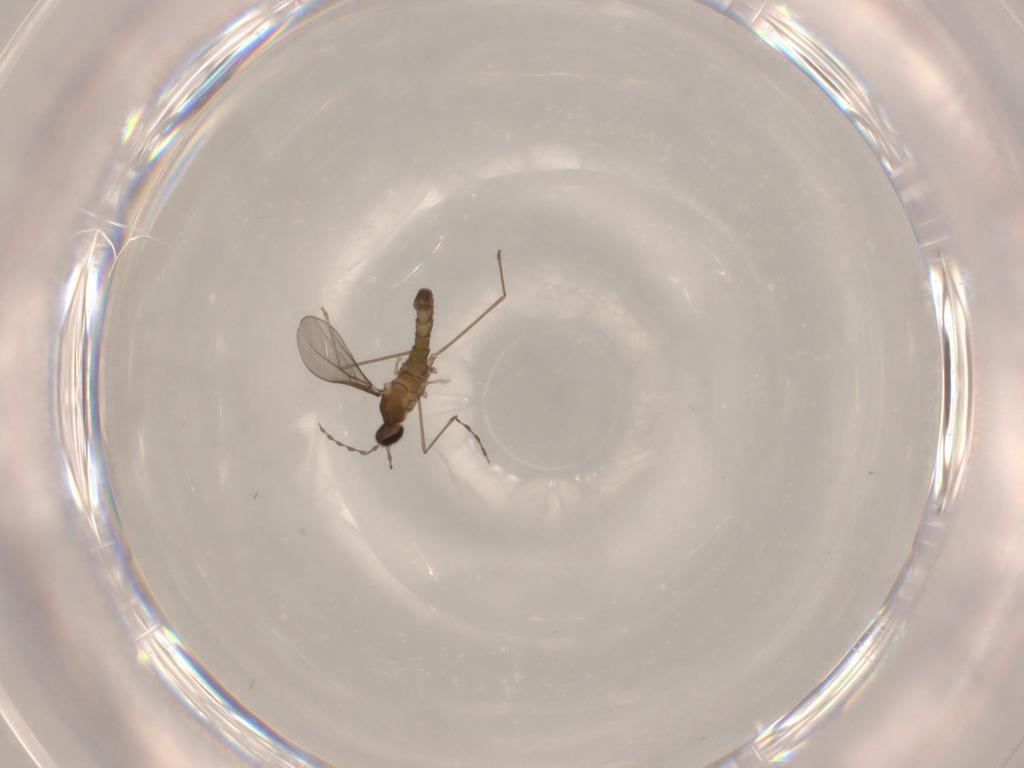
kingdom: Animalia
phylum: Arthropoda
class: Insecta
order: Diptera
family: Cecidomyiidae
